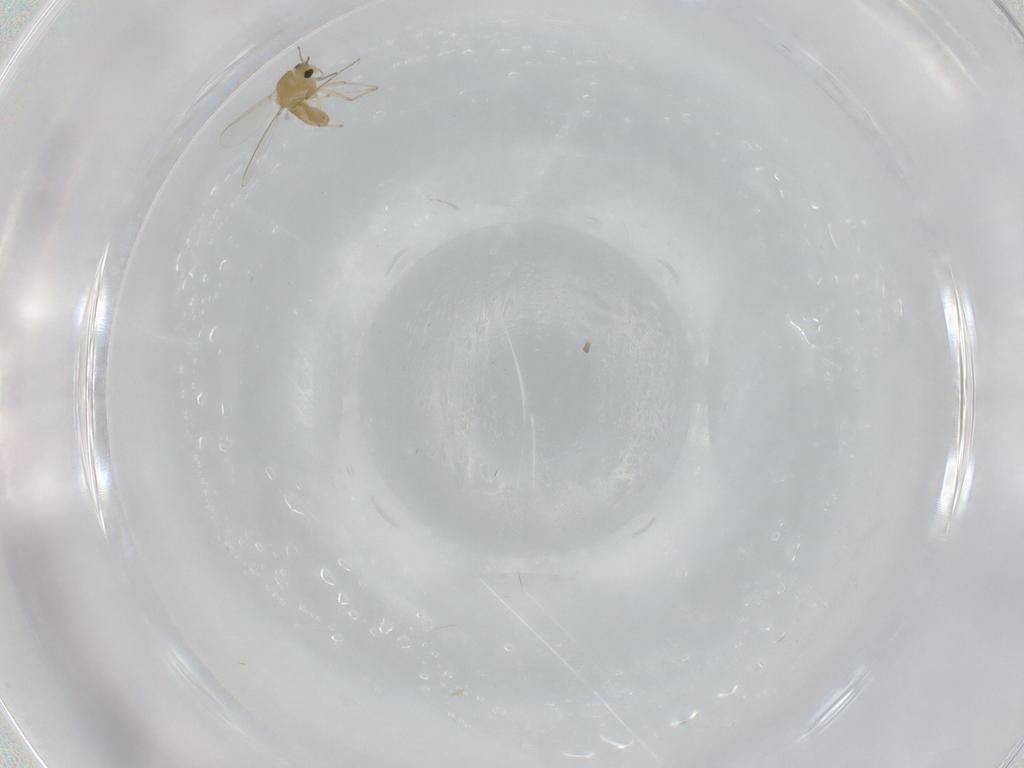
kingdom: Animalia
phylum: Arthropoda
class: Insecta
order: Diptera
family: Chironomidae
